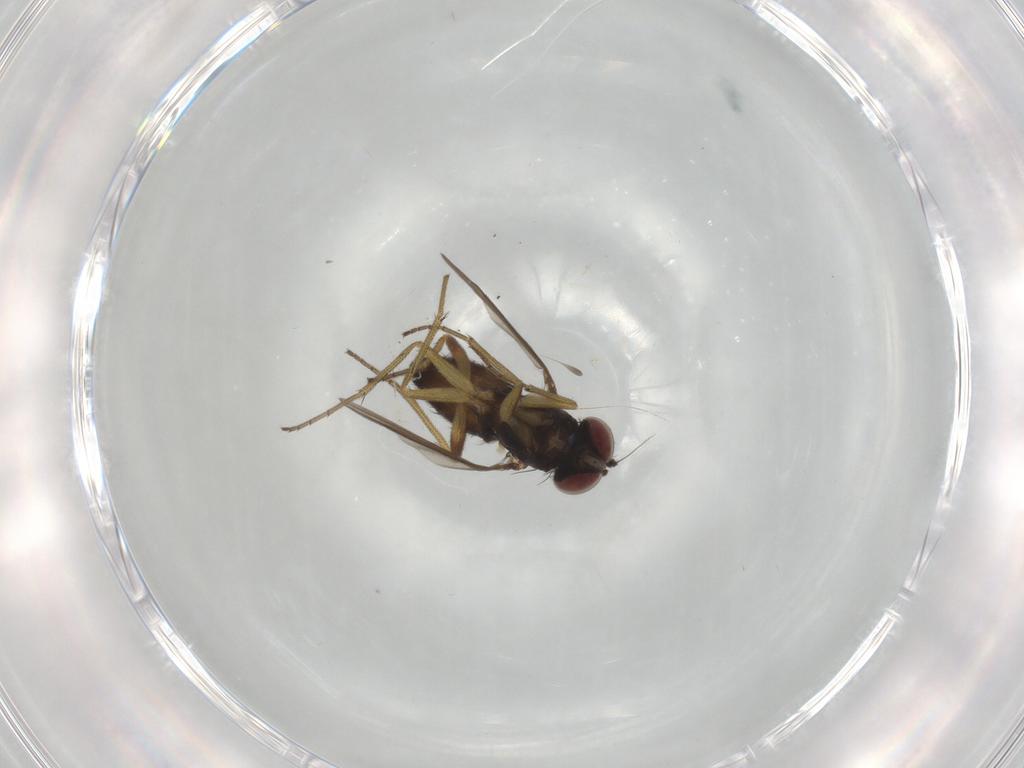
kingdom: Animalia
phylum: Arthropoda
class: Insecta
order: Diptera
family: Dolichopodidae
